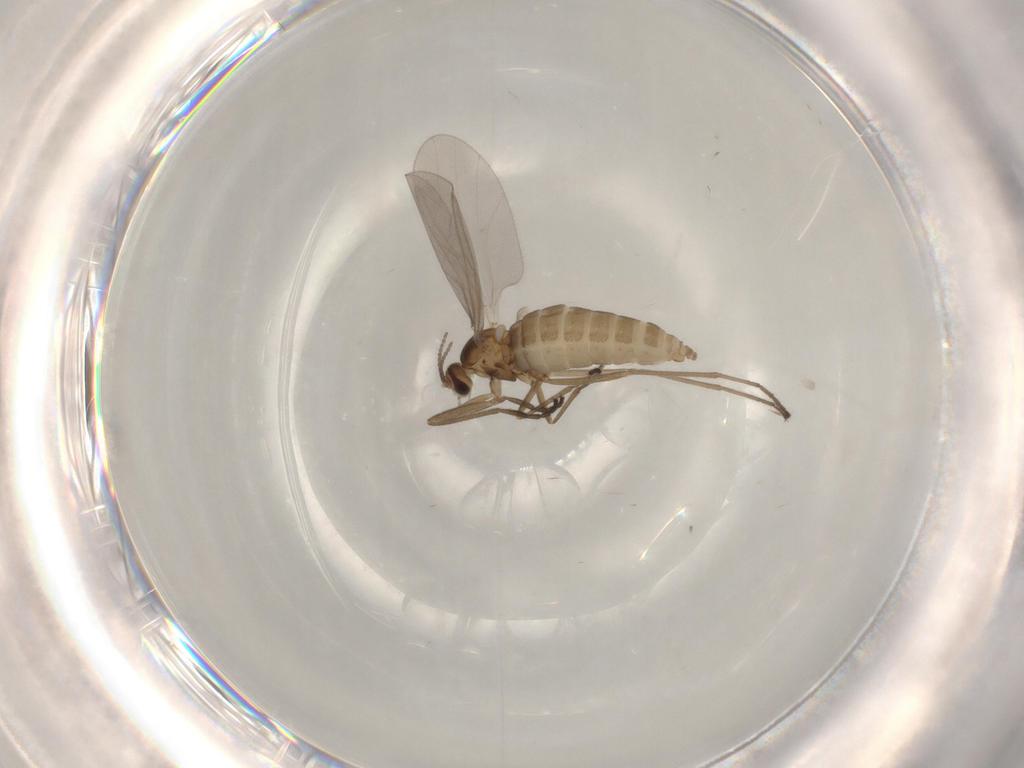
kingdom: Animalia
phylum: Arthropoda
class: Insecta
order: Diptera
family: Cecidomyiidae
